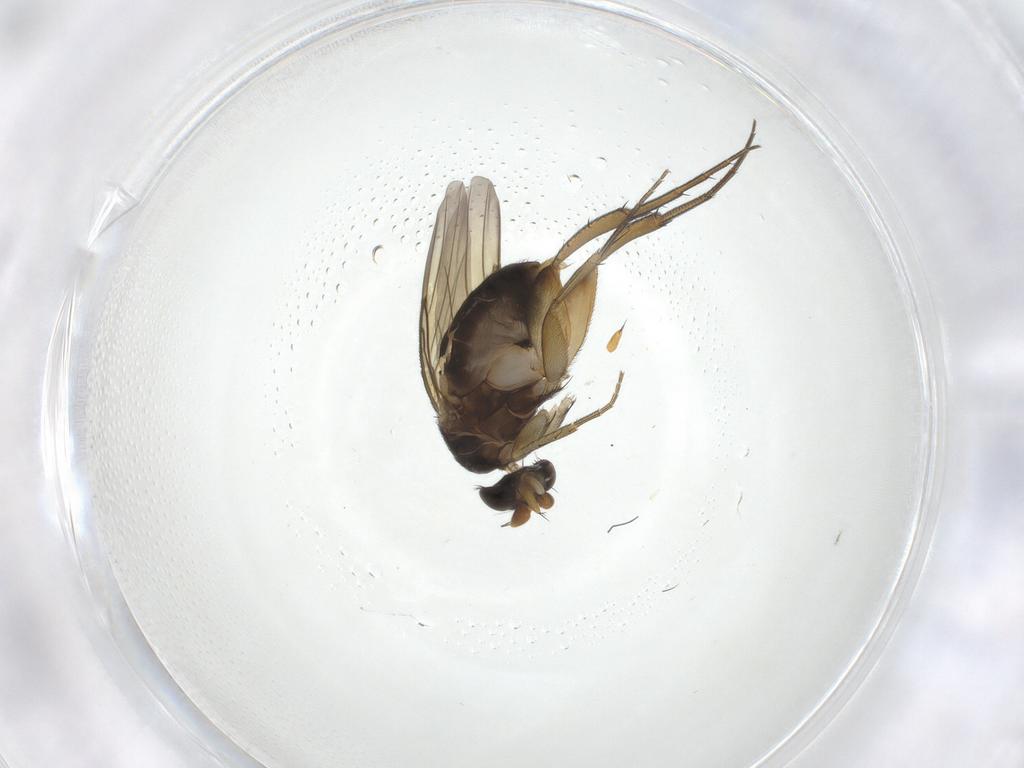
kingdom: Animalia
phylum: Arthropoda
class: Insecta
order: Diptera
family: Phoridae
